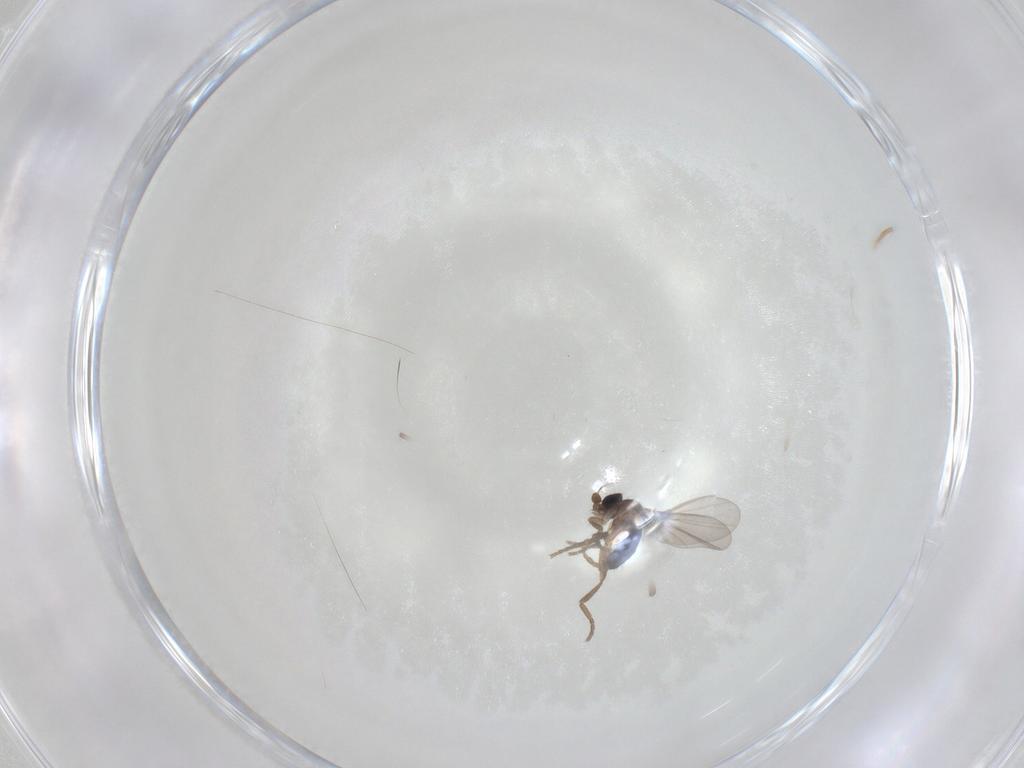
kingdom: Animalia
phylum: Arthropoda
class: Insecta
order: Diptera
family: Phoridae
